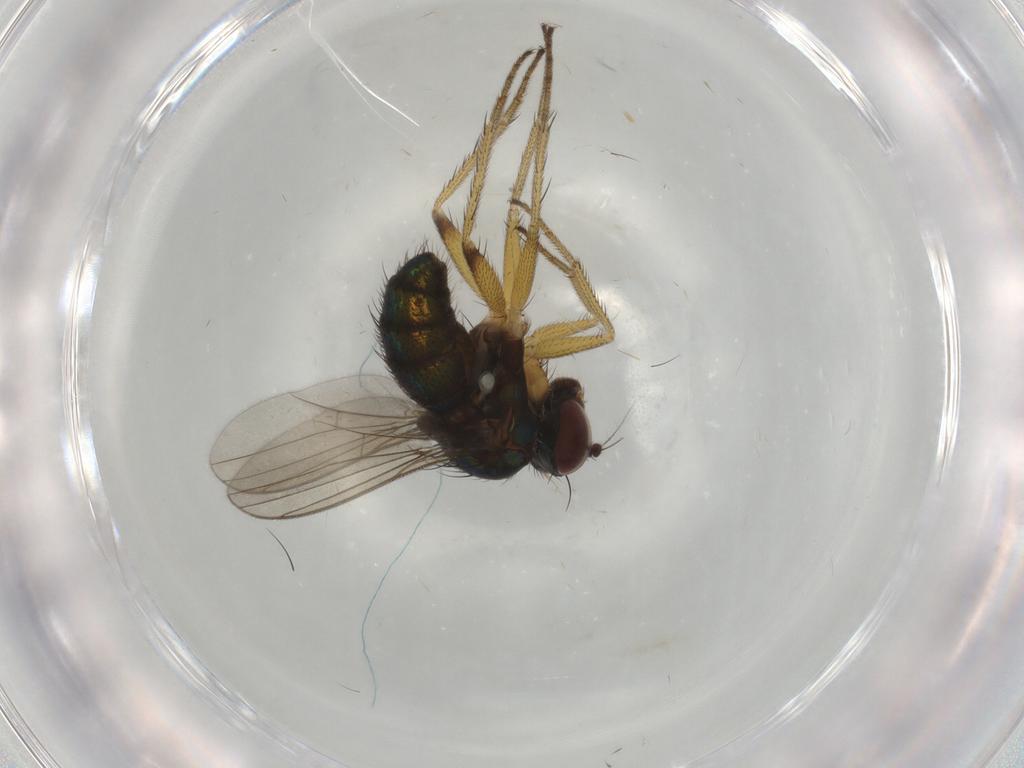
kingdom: Animalia
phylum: Arthropoda
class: Insecta
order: Diptera
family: Dolichopodidae
